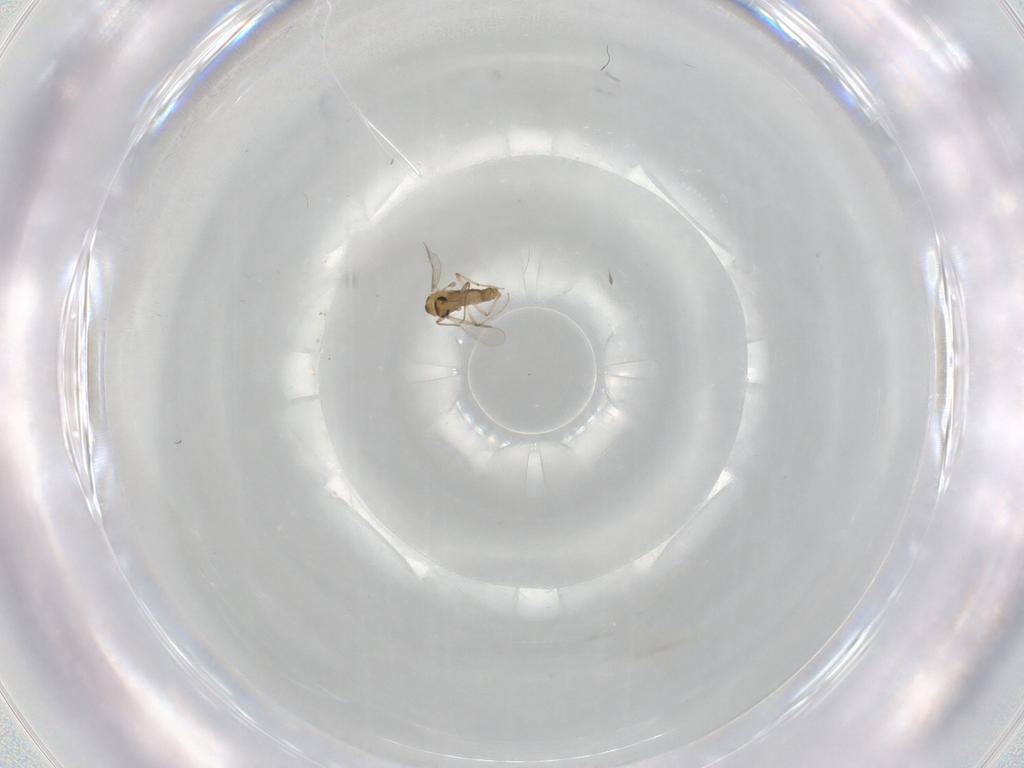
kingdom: Animalia
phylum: Arthropoda
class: Insecta
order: Diptera
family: Chironomidae
